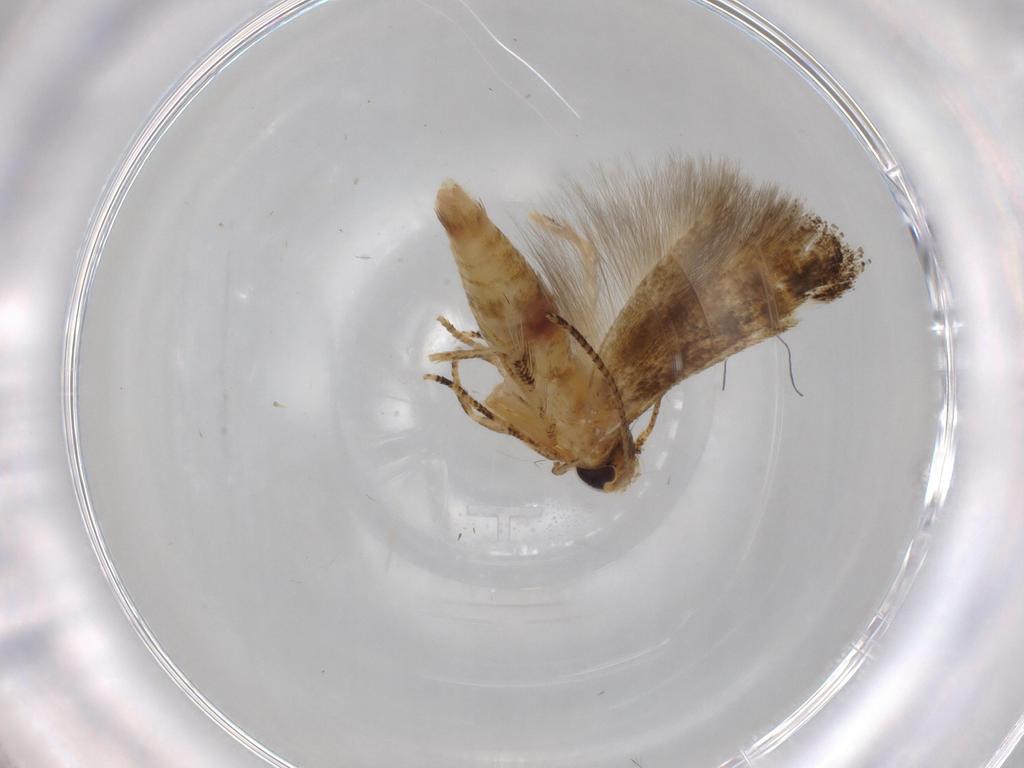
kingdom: Animalia
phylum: Arthropoda
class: Insecta
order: Lepidoptera
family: Momphidae
